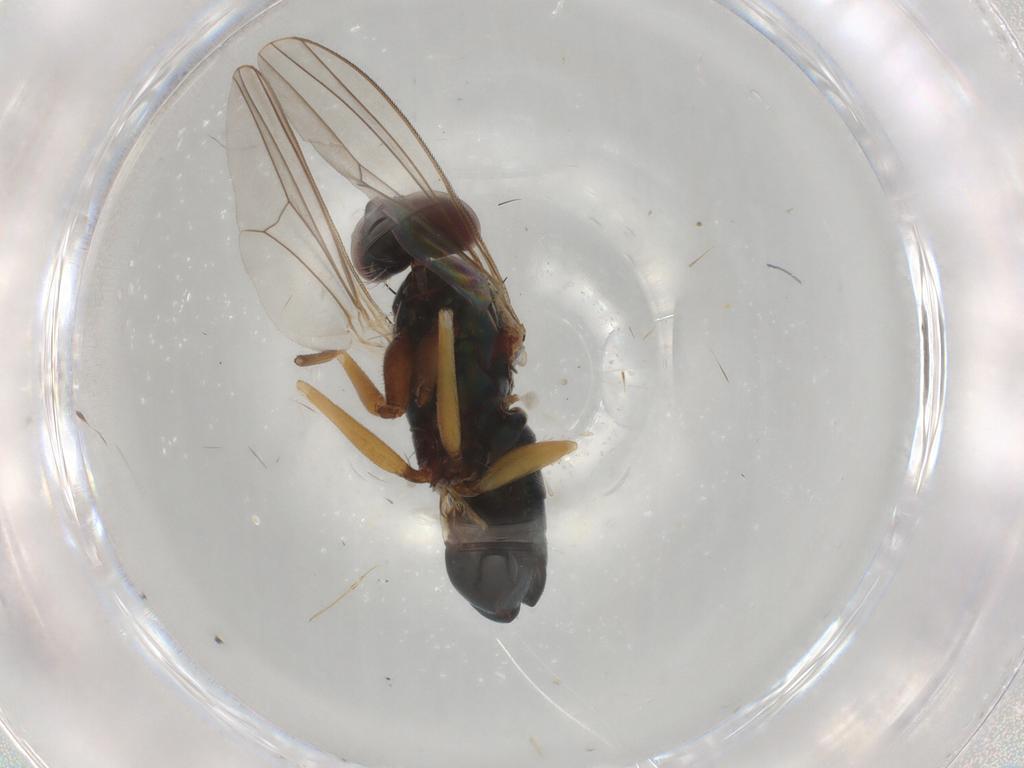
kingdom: Animalia
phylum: Arthropoda
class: Insecta
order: Diptera
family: Dolichopodidae
